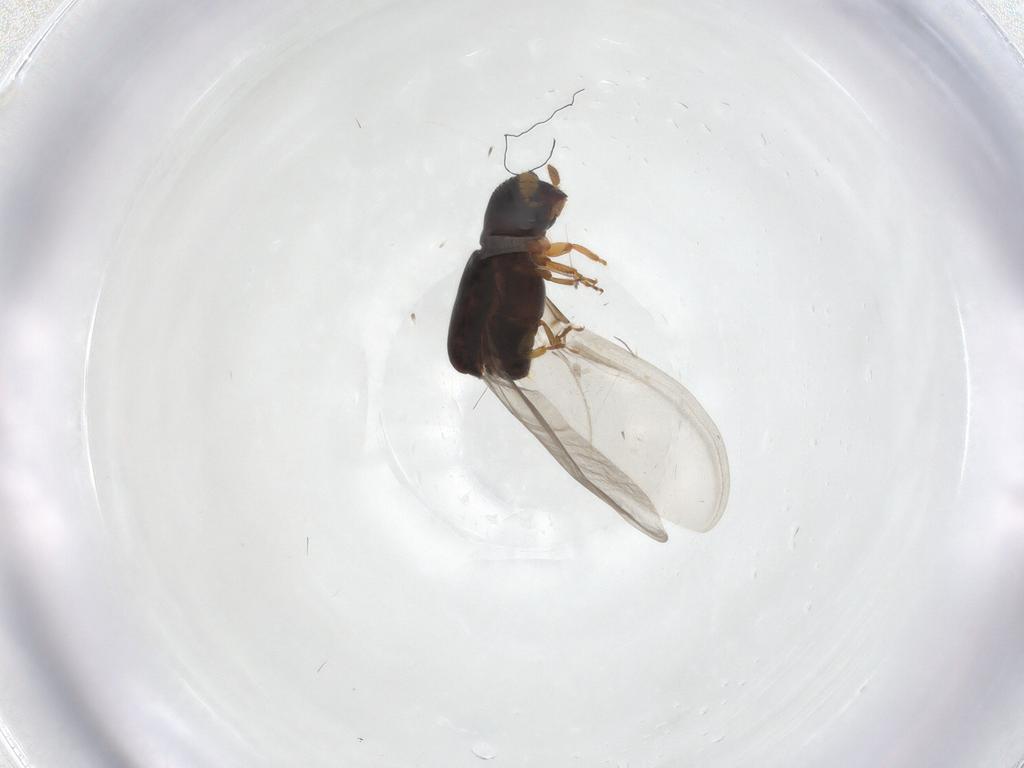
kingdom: Animalia
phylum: Arthropoda
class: Insecta
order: Coleoptera
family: Curculionidae
